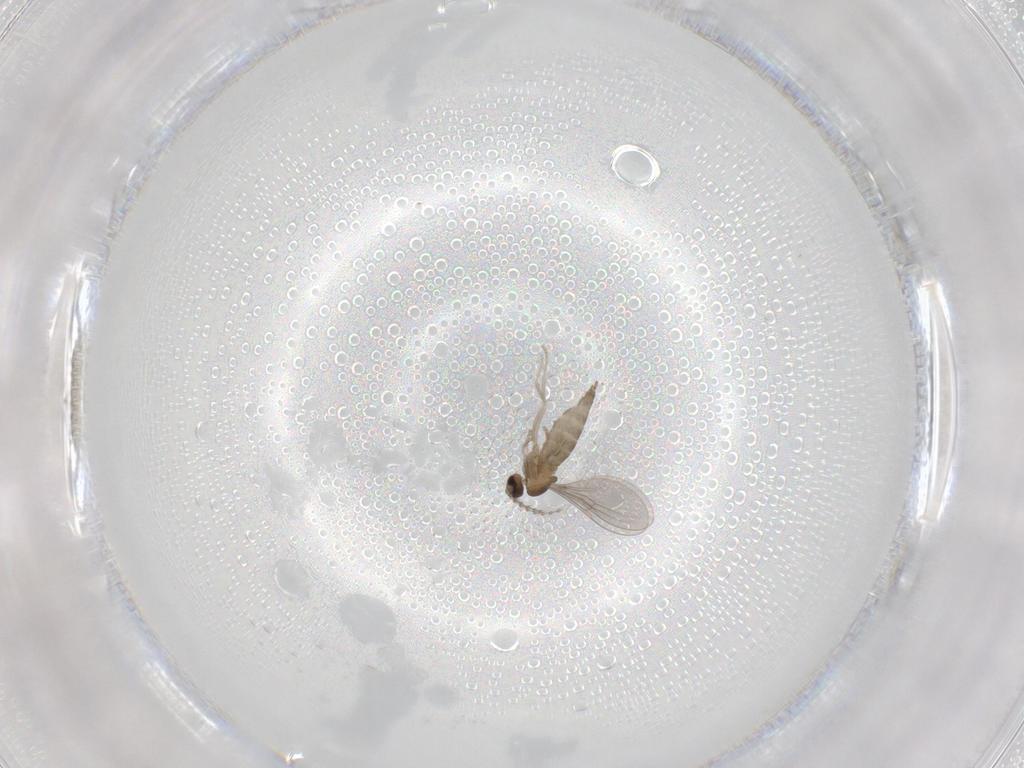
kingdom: Animalia
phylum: Arthropoda
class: Insecta
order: Diptera
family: Cecidomyiidae
